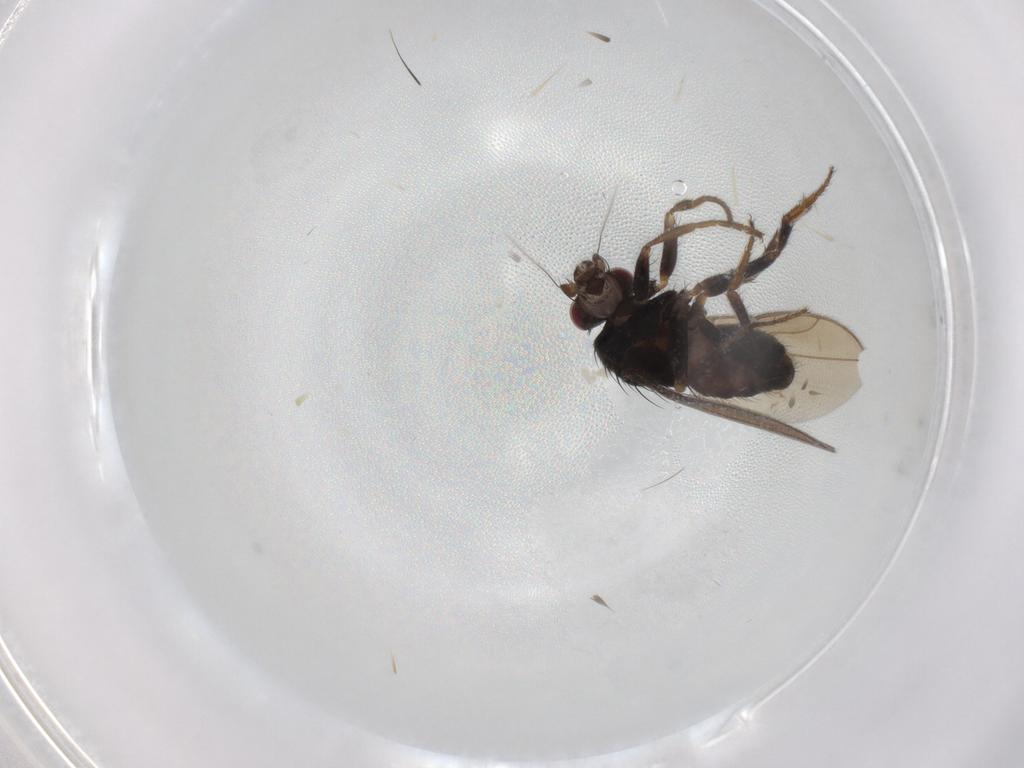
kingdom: Animalia
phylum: Arthropoda
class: Insecta
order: Diptera
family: Sphaeroceridae
